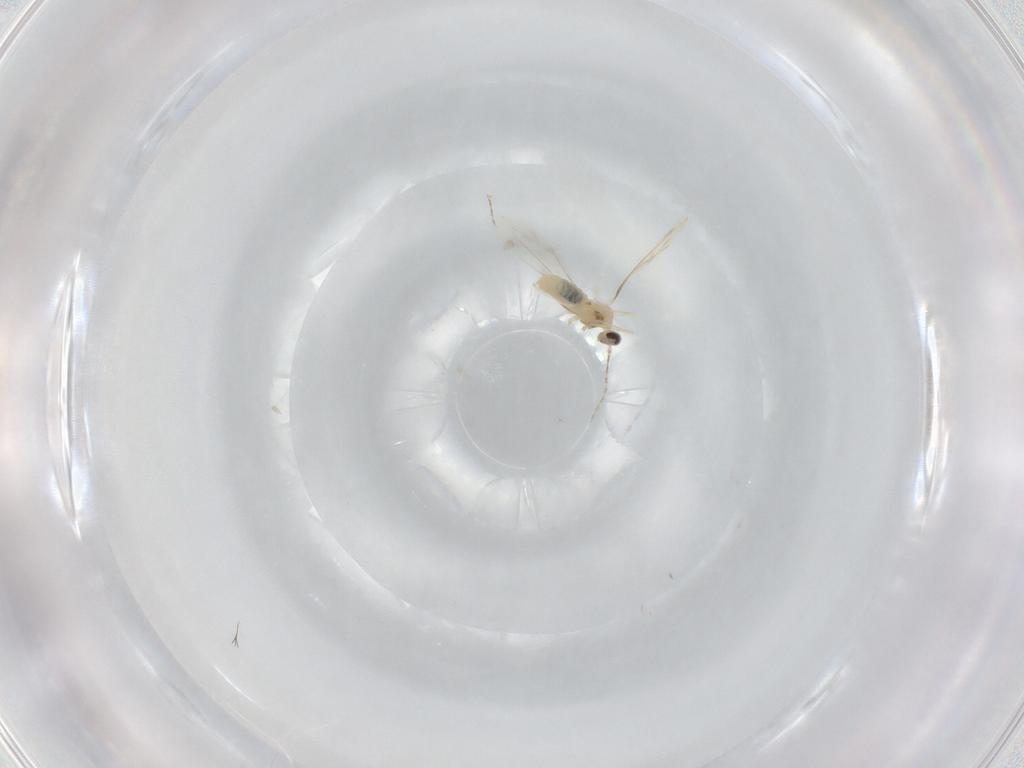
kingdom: Animalia
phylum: Arthropoda
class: Insecta
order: Diptera
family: Cecidomyiidae
